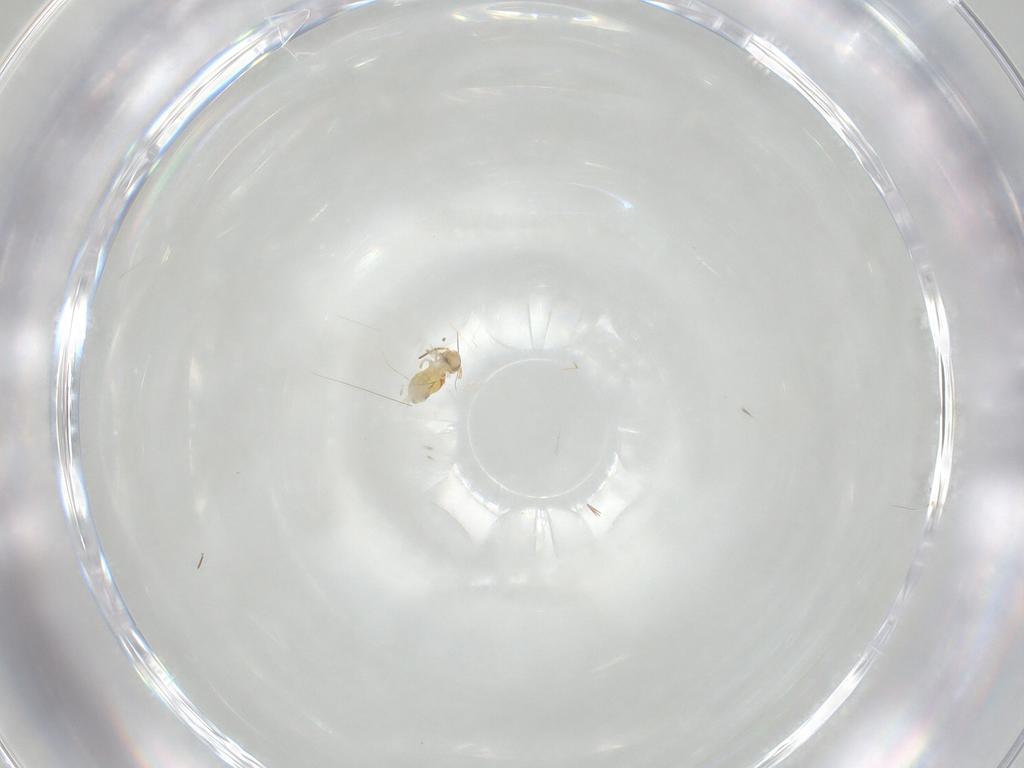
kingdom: Animalia
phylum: Arthropoda
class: Collembola
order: Symphypleona
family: Bourletiellidae
